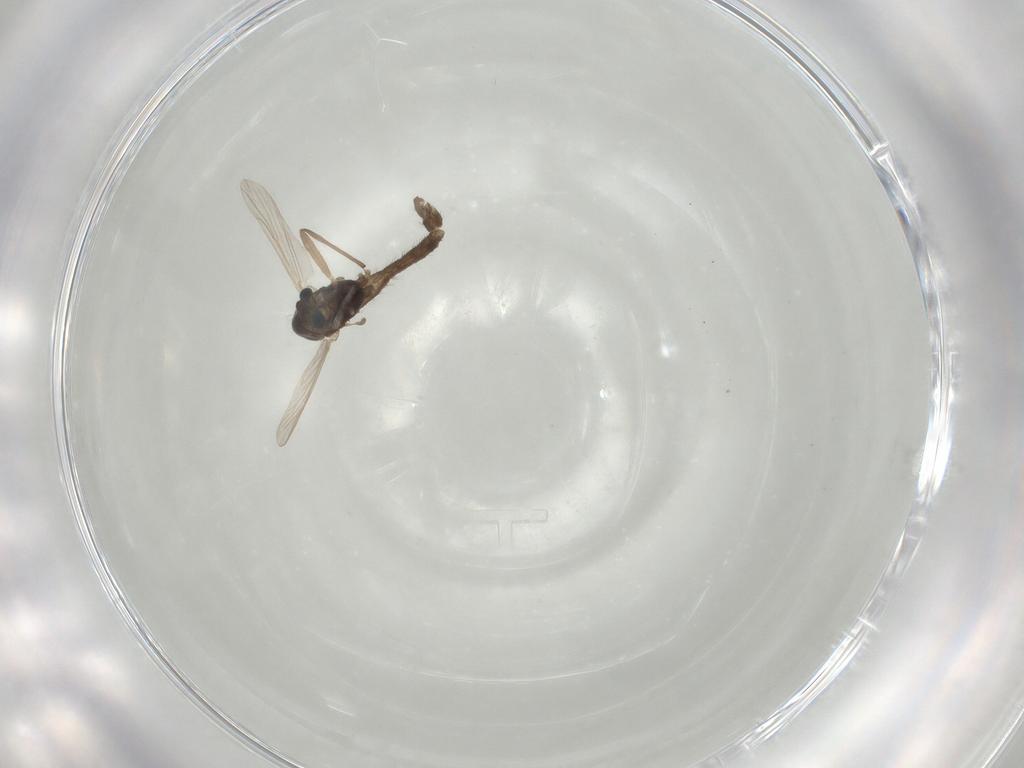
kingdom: Animalia
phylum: Arthropoda
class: Insecta
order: Diptera
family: Chironomidae
